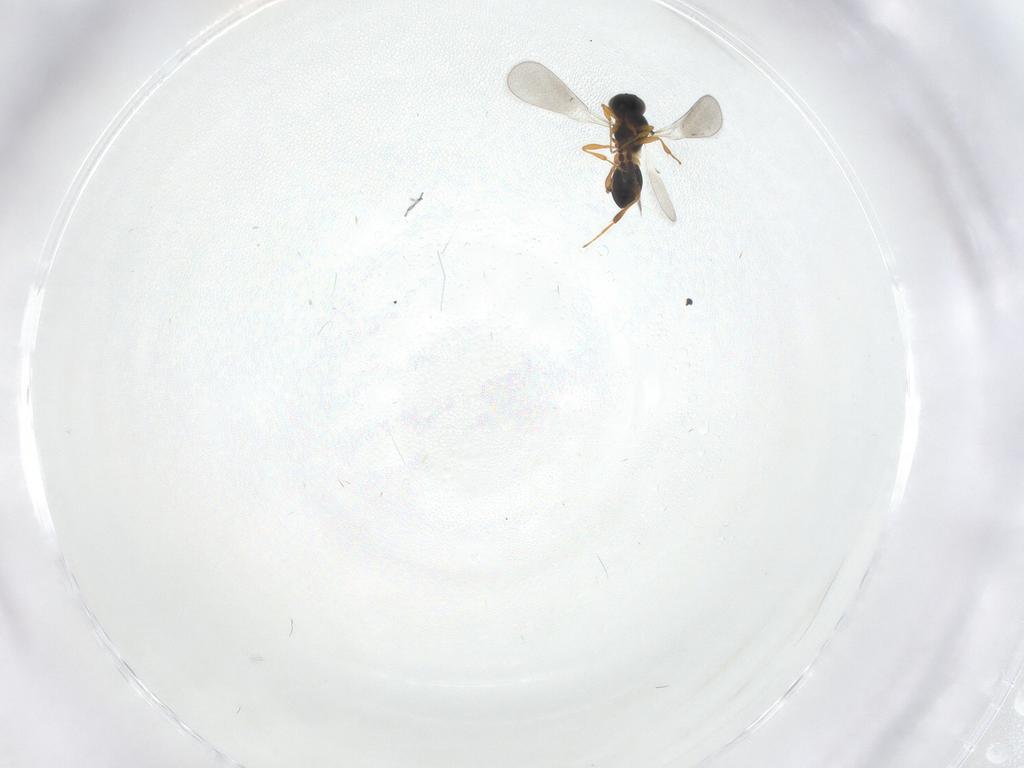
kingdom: Animalia
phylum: Arthropoda
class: Insecta
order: Hymenoptera
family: Platygastridae
